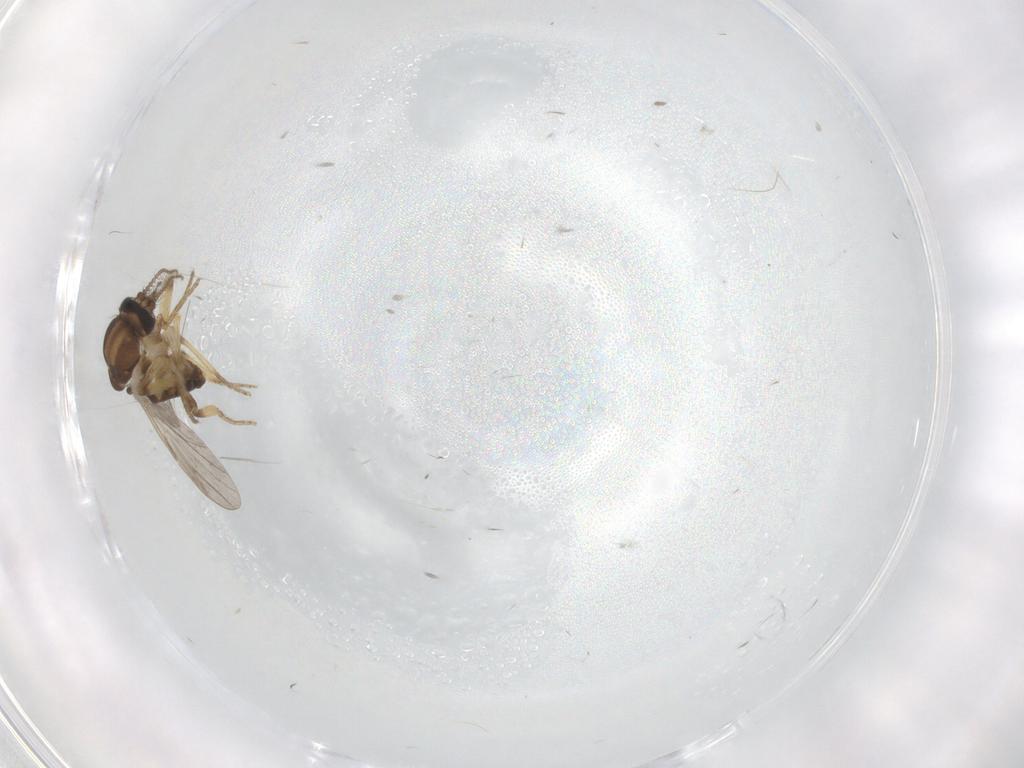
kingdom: Animalia
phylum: Arthropoda
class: Insecta
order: Diptera
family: Ceratopogonidae
